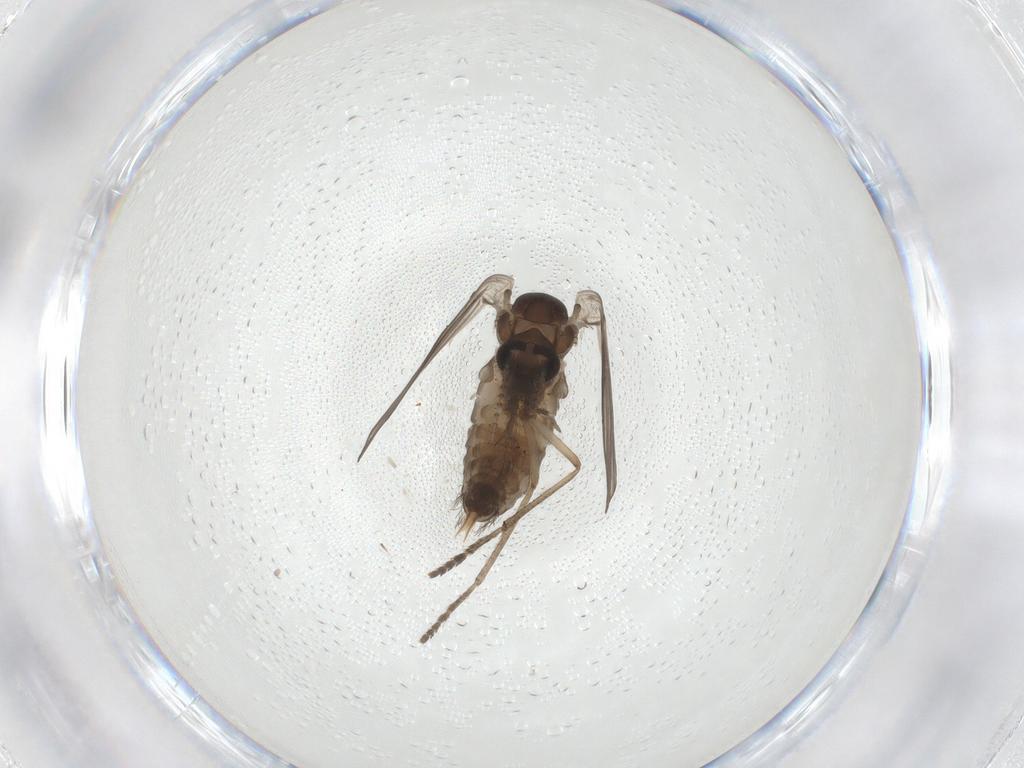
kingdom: Animalia
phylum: Arthropoda
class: Insecta
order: Diptera
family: Psychodidae
